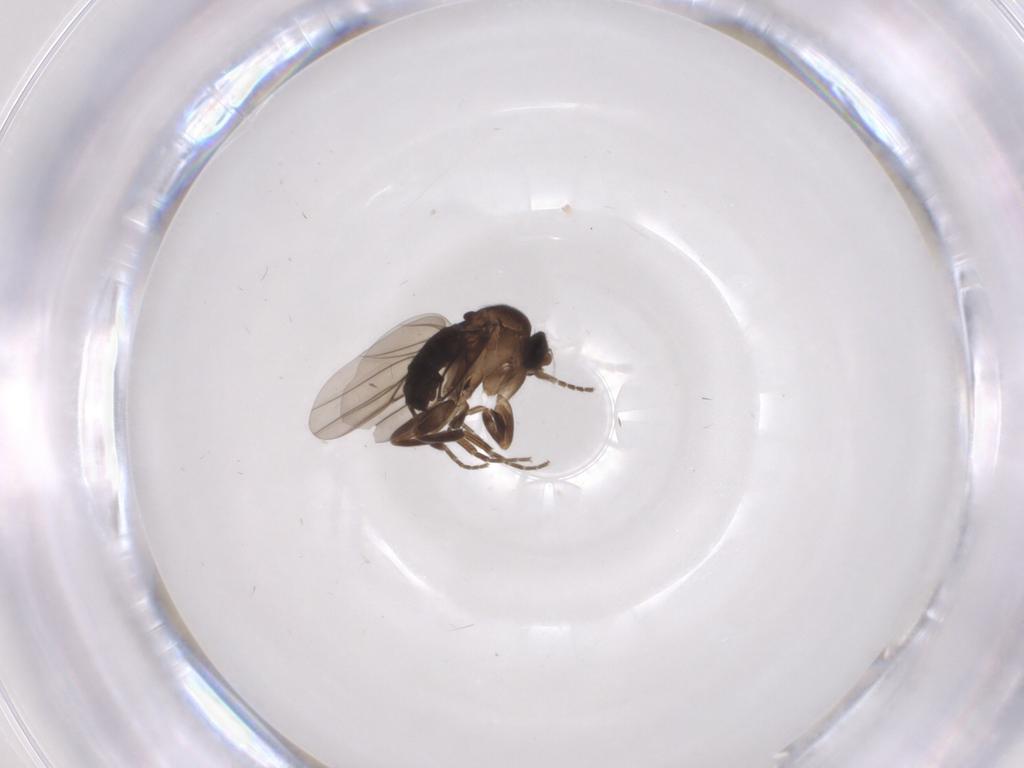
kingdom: Animalia
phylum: Arthropoda
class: Insecta
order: Diptera
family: Phoridae
